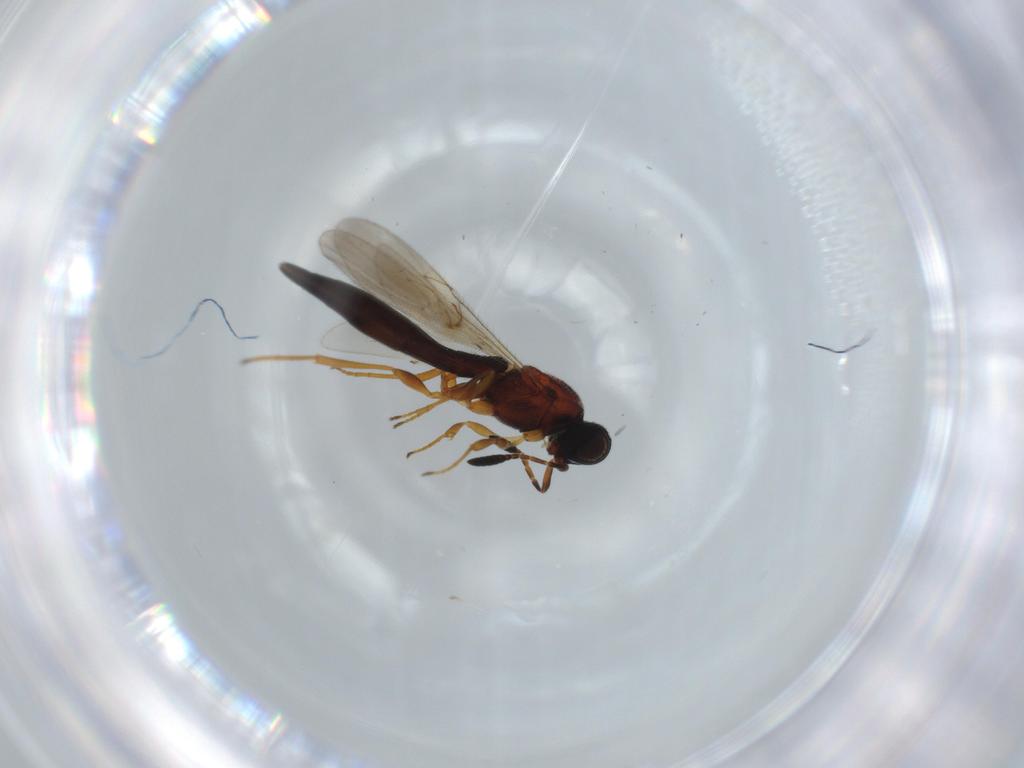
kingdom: Animalia
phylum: Arthropoda
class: Insecta
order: Hymenoptera
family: Scelionidae
